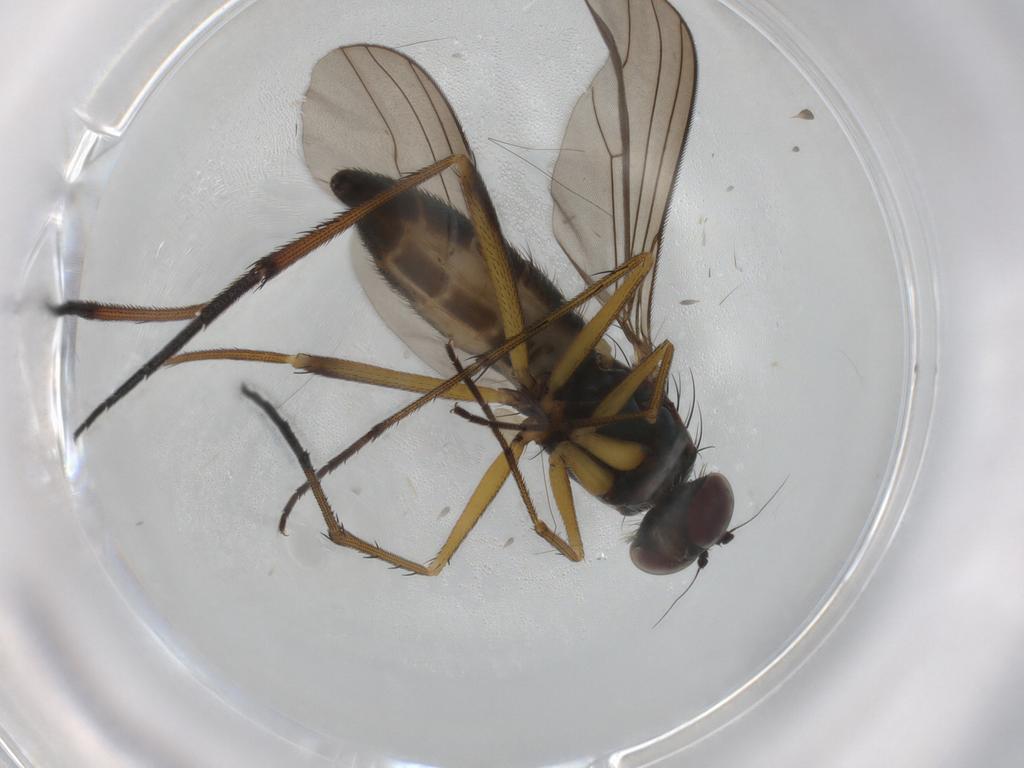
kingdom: Animalia
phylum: Arthropoda
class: Insecta
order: Diptera
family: Dolichopodidae
